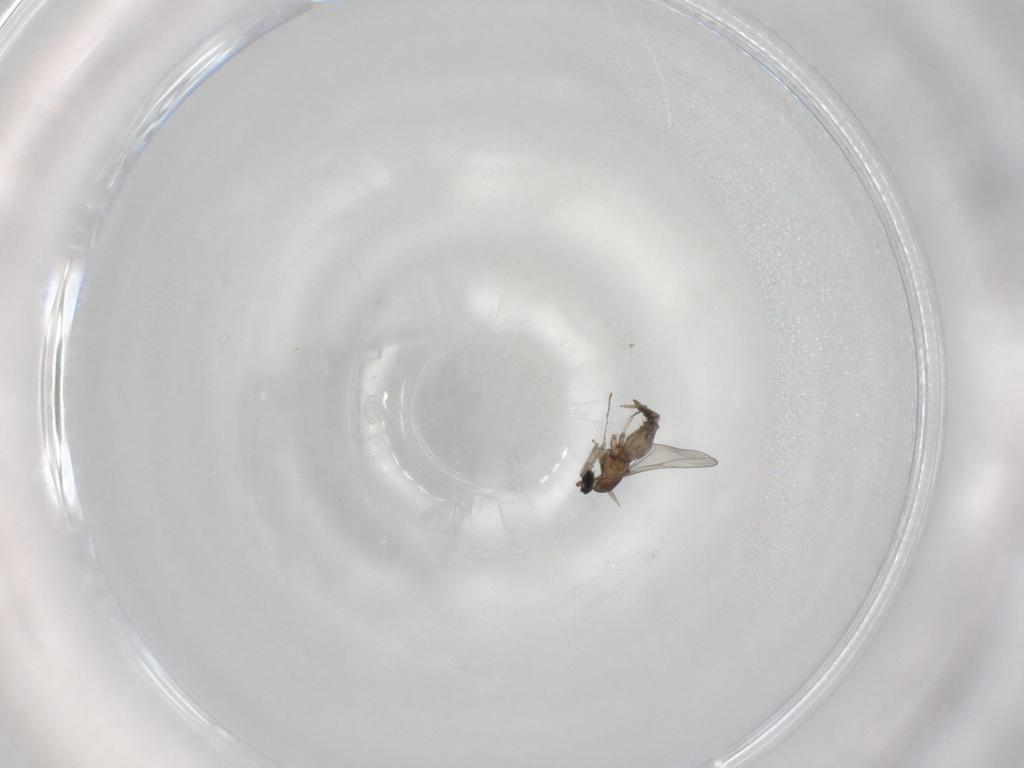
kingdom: Animalia
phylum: Arthropoda
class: Insecta
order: Diptera
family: Cecidomyiidae
